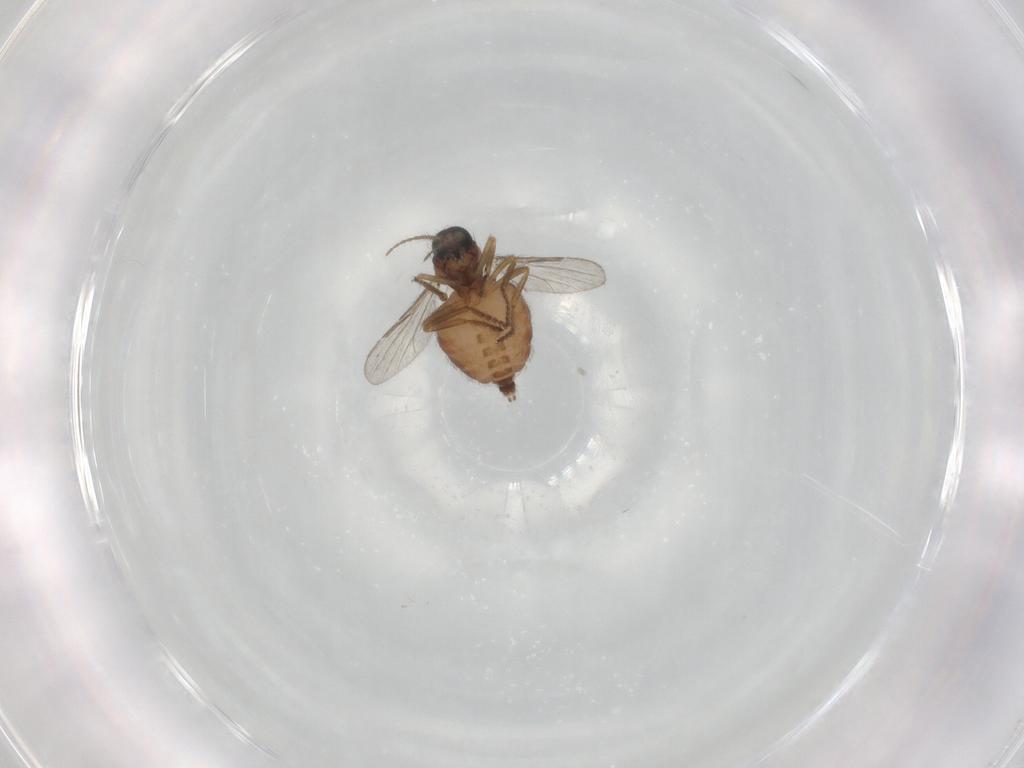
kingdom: Animalia
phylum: Arthropoda
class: Insecta
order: Diptera
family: Ceratopogonidae
